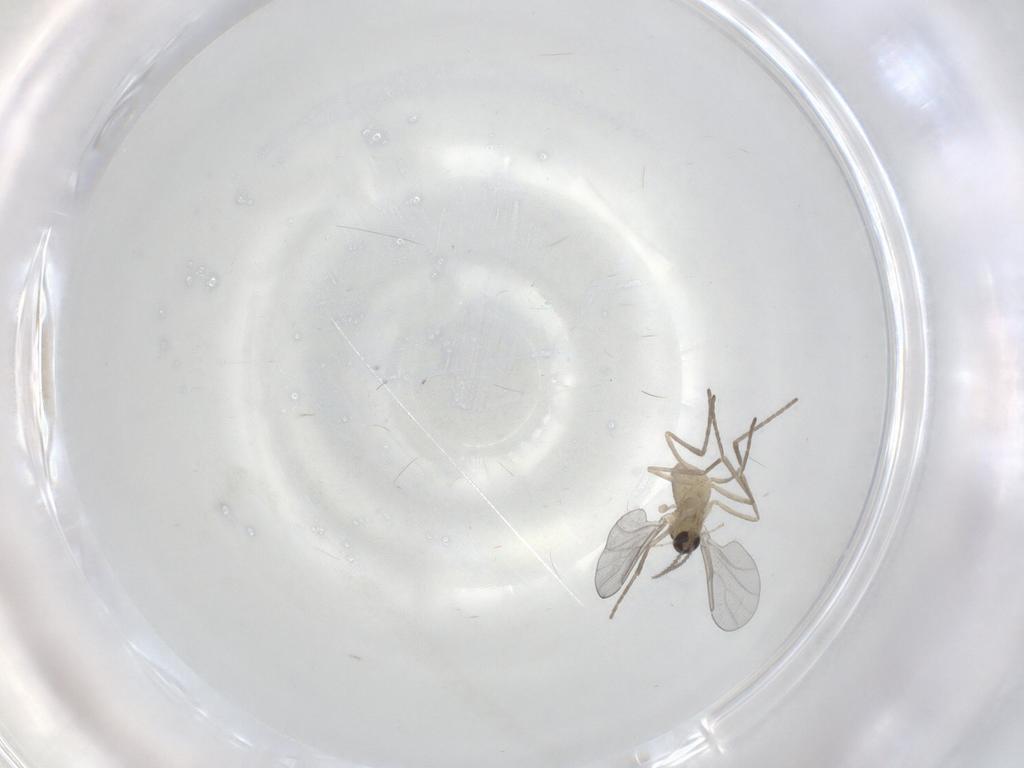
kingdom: Animalia
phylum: Arthropoda
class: Insecta
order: Diptera
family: Cecidomyiidae
